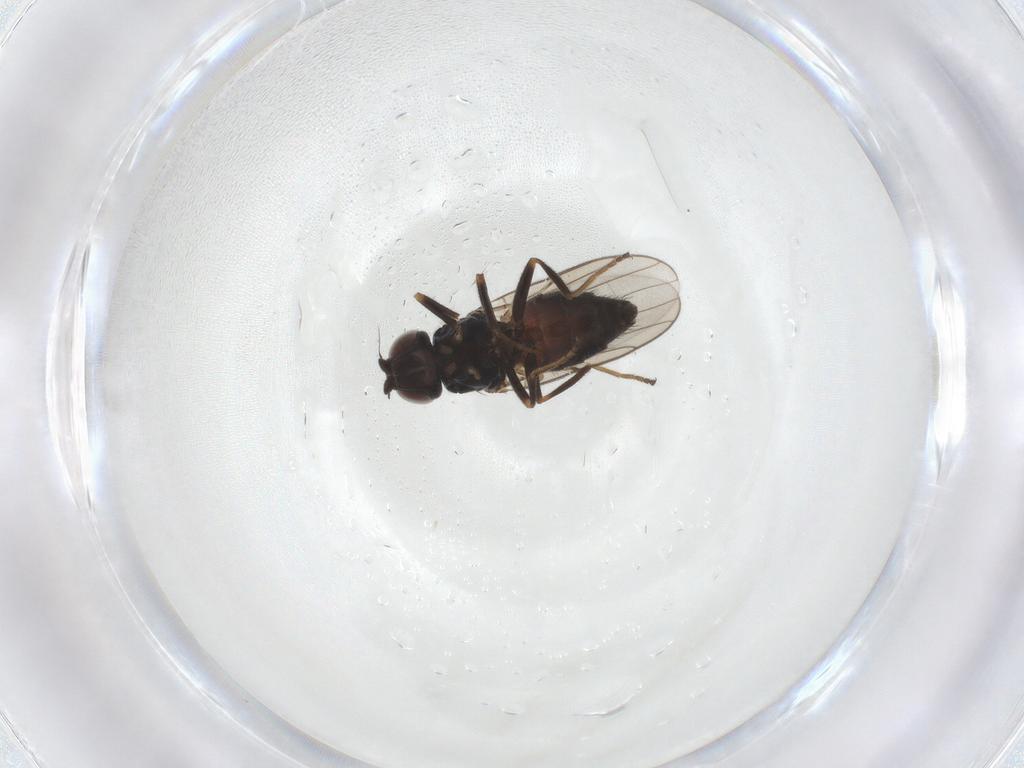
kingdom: Animalia
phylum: Arthropoda
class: Insecta
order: Diptera
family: Chloropidae
